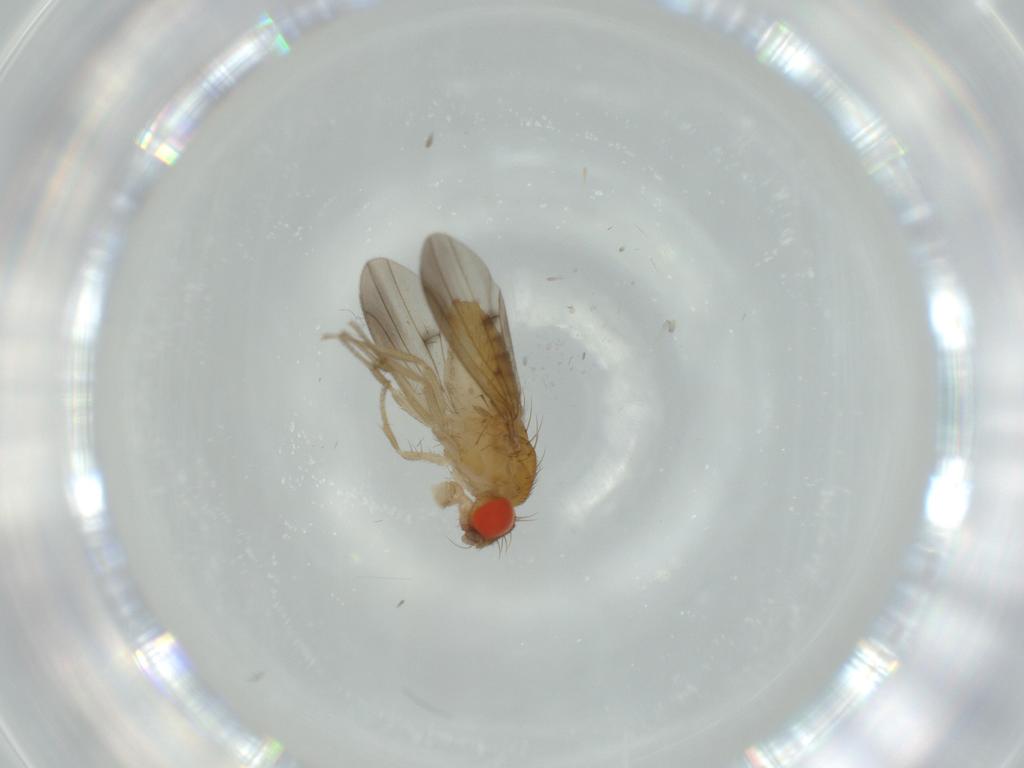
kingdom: Animalia
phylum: Arthropoda
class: Insecta
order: Diptera
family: Drosophilidae
